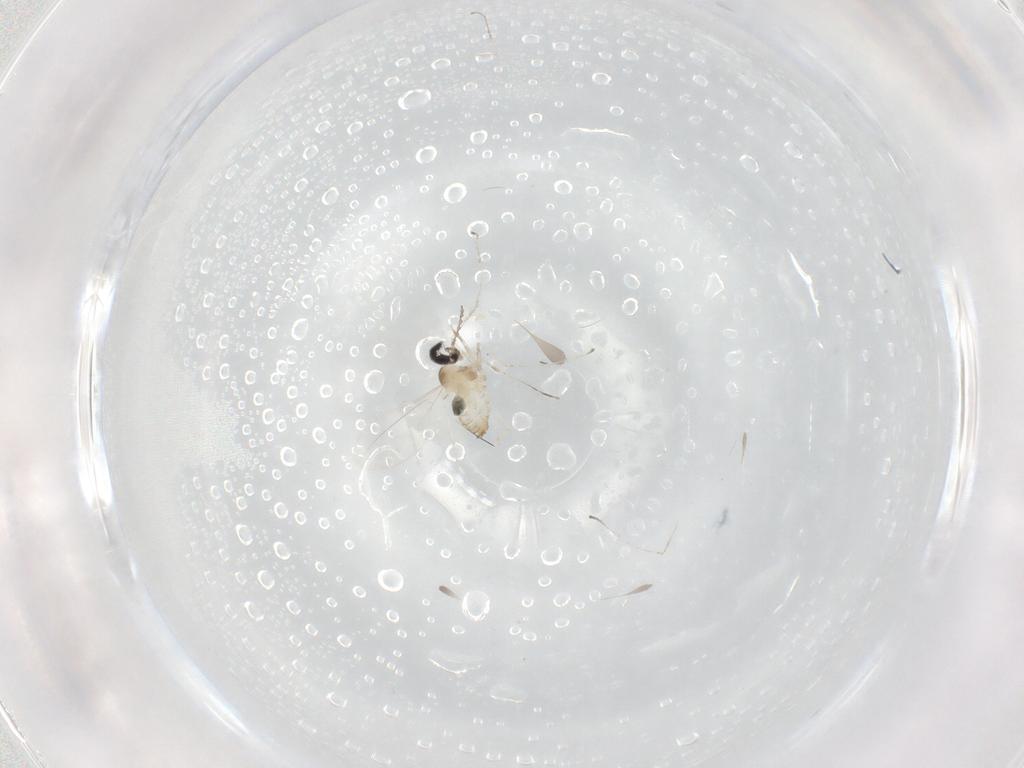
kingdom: Animalia
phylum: Arthropoda
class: Insecta
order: Diptera
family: Cecidomyiidae
